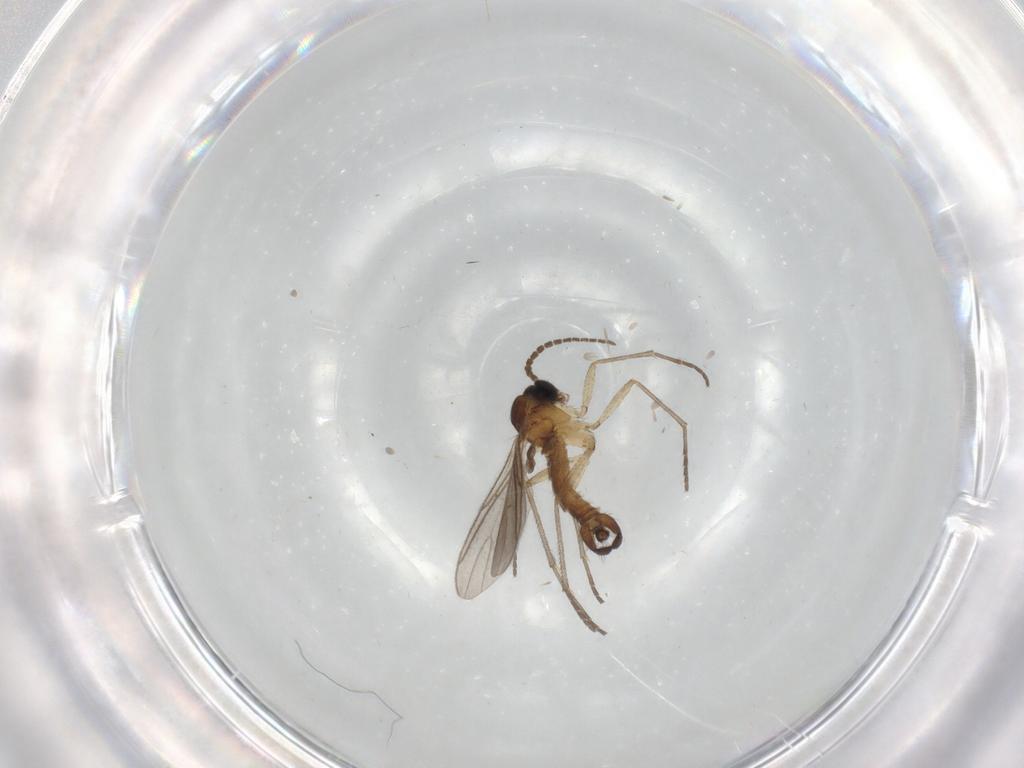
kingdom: Animalia
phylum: Arthropoda
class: Insecta
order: Diptera
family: Sciaridae
